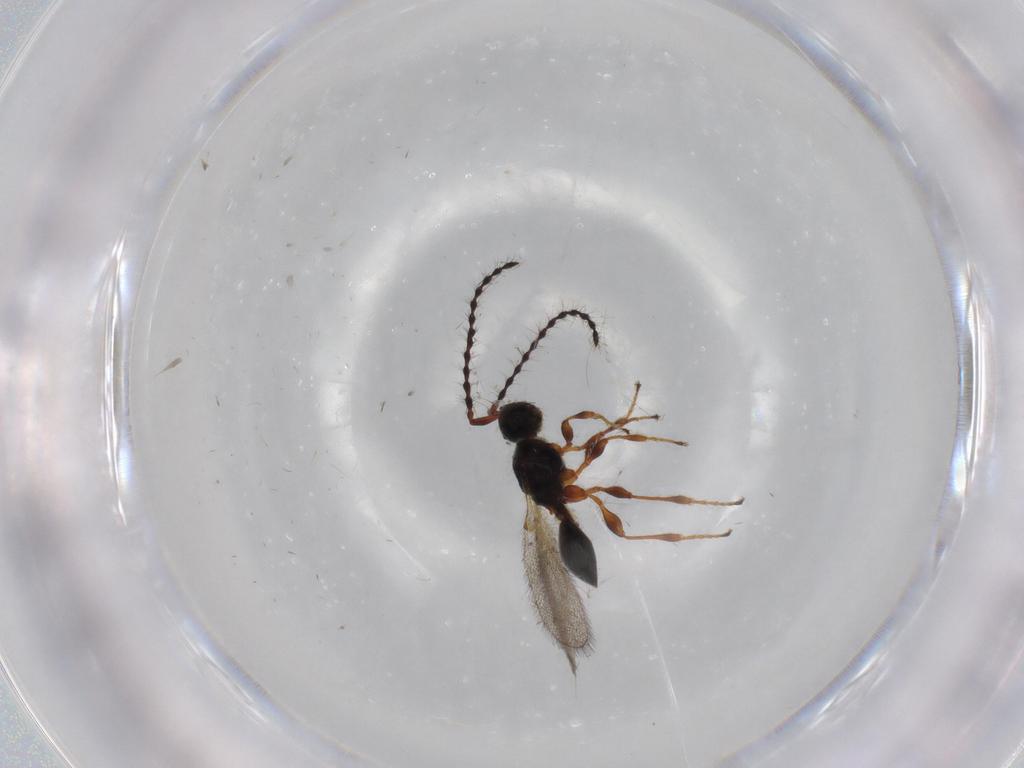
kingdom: Animalia
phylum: Arthropoda
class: Insecta
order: Hymenoptera
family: Diapriidae
